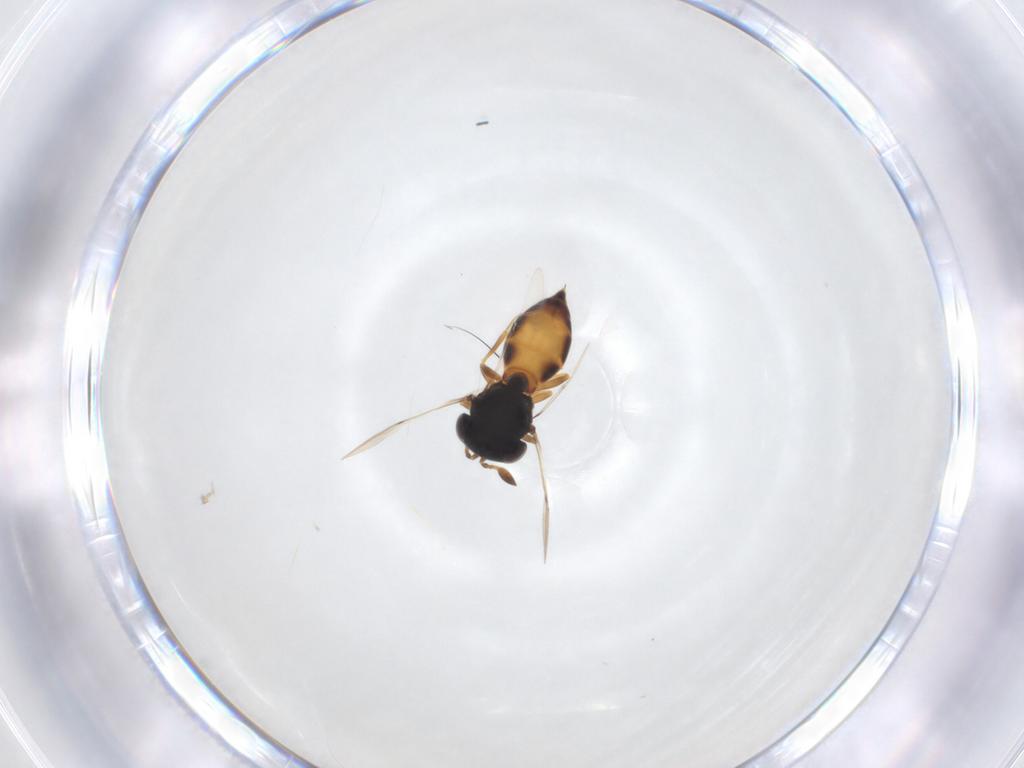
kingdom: Animalia
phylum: Arthropoda
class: Insecta
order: Hymenoptera
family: Scelionidae
